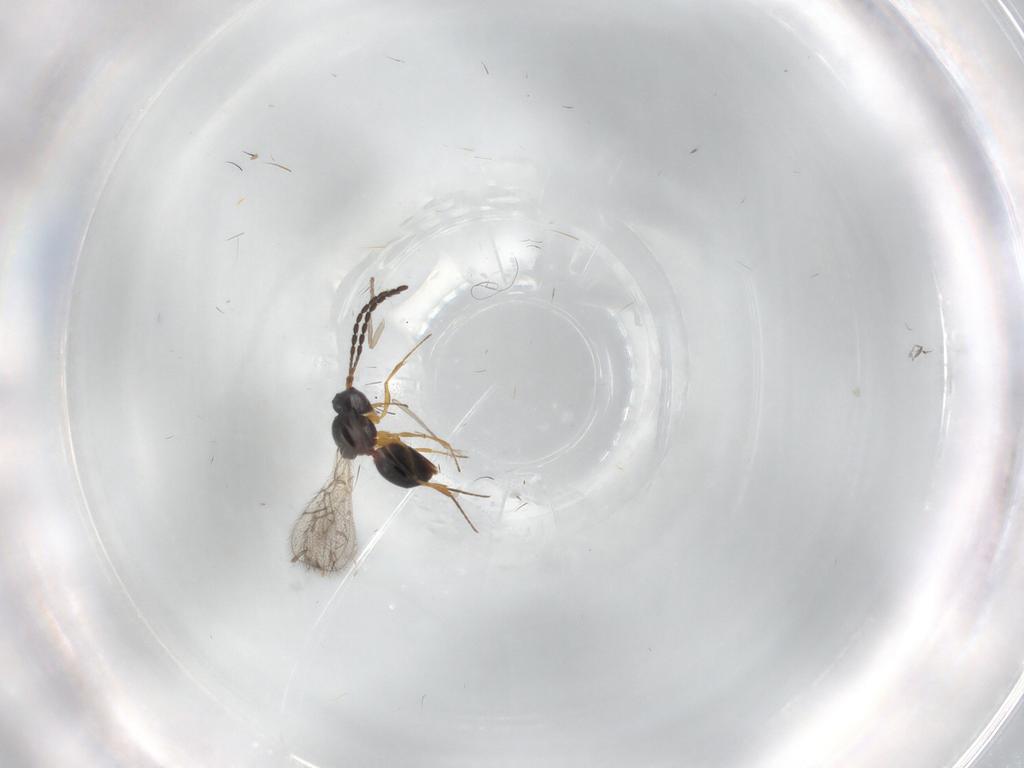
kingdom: Animalia
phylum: Arthropoda
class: Insecta
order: Hymenoptera
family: Figitidae
